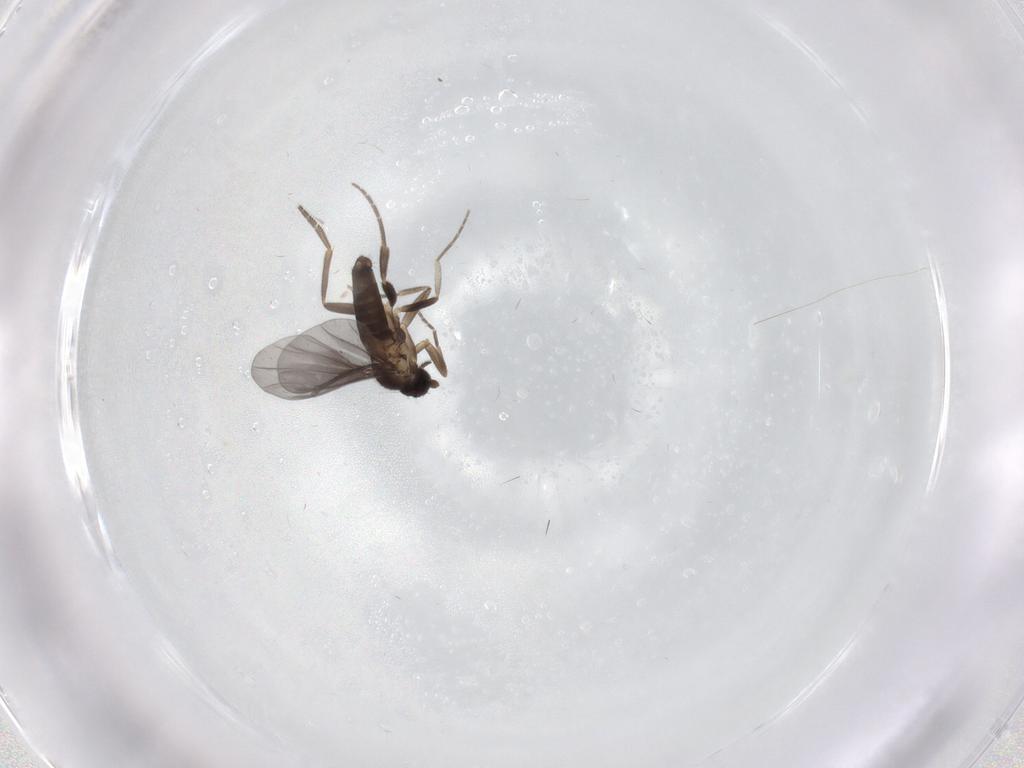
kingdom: Animalia
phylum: Arthropoda
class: Insecta
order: Diptera
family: Phoridae
